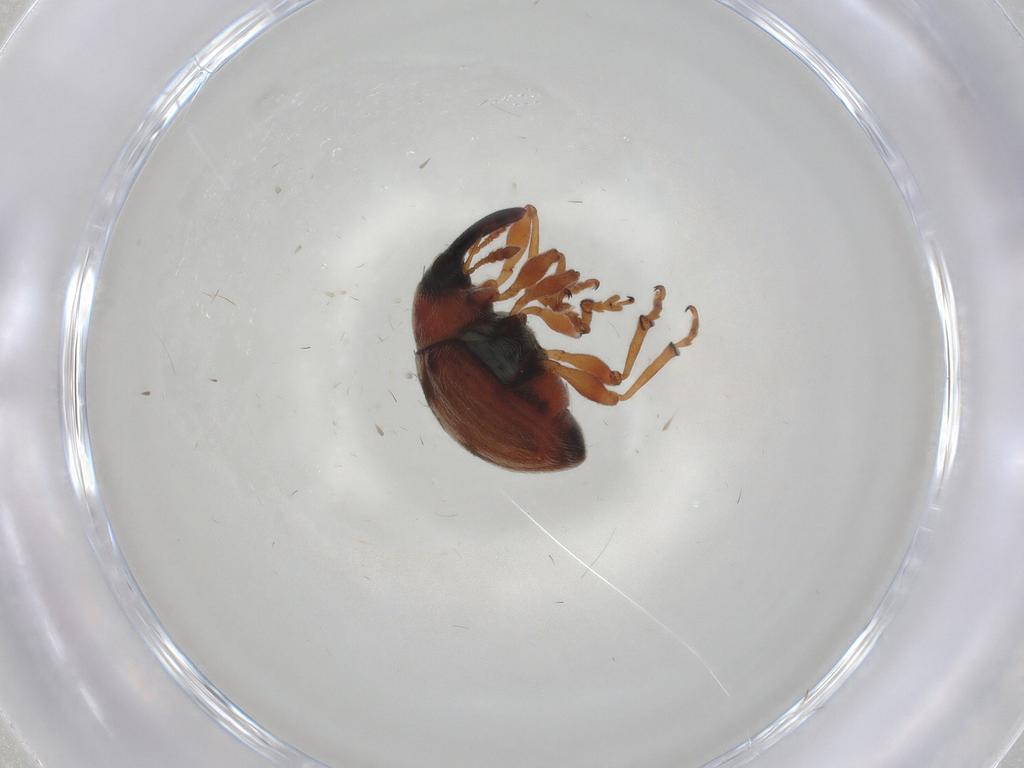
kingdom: Animalia
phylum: Arthropoda
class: Insecta
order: Coleoptera
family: Brentidae
